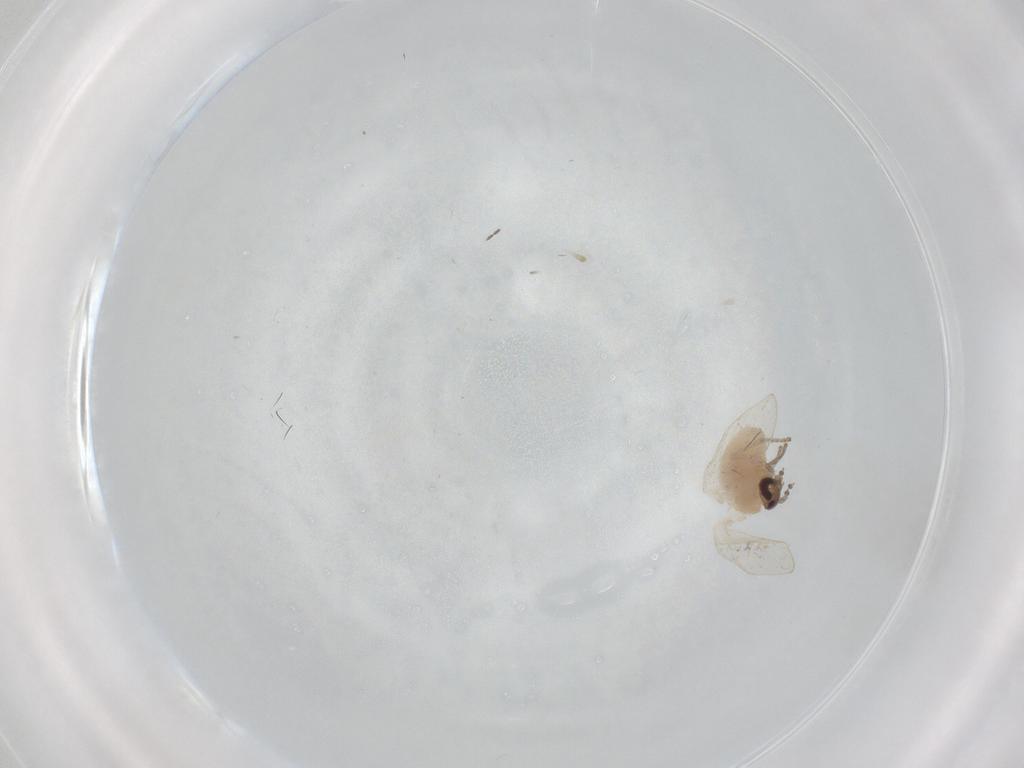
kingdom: Animalia
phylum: Arthropoda
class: Insecta
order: Diptera
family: Psychodidae
